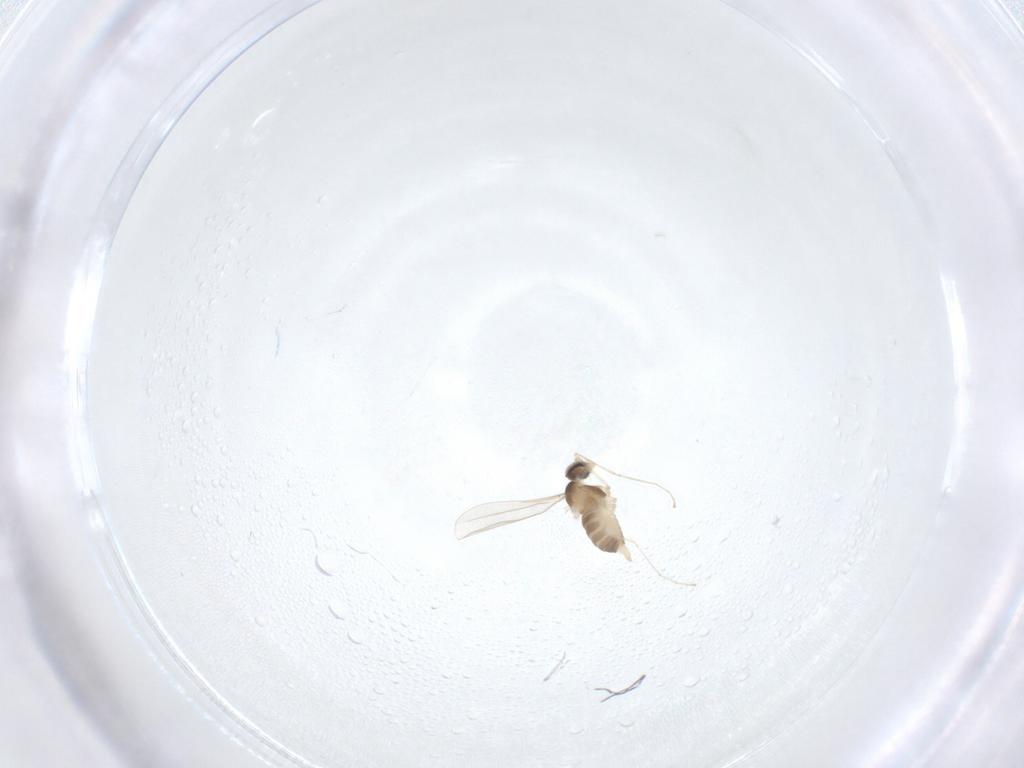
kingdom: Animalia
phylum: Arthropoda
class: Insecta
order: Diptera
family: Cecidomyiidae
